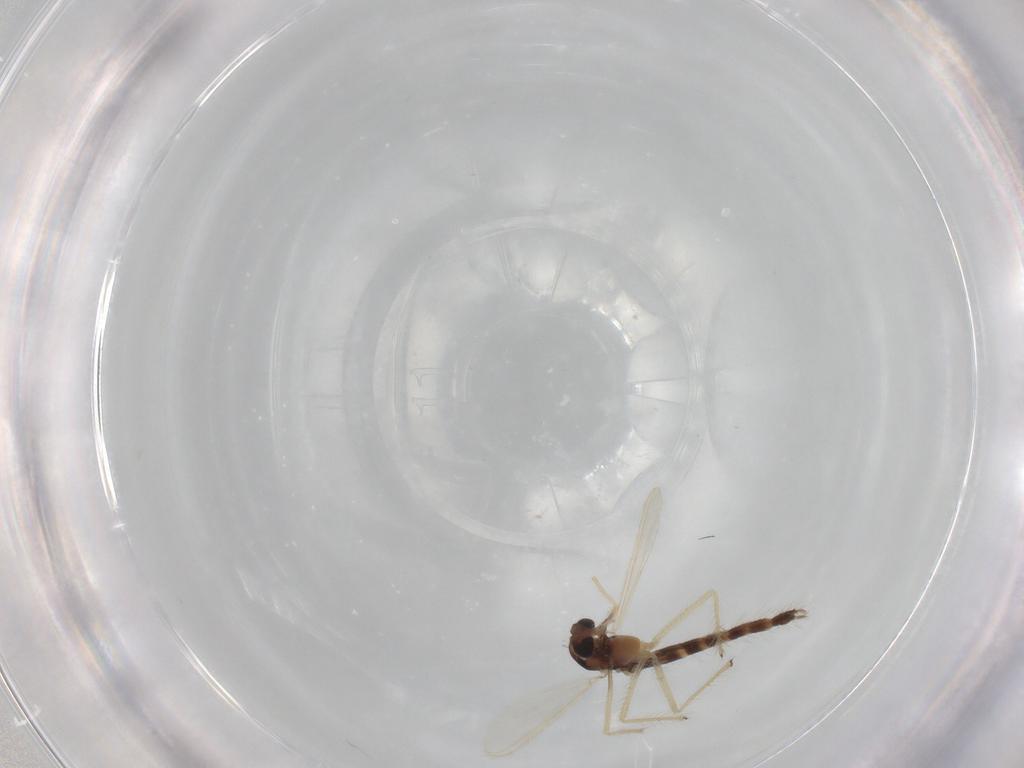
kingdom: Animalia
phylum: Arthropoda
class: Insecta
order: Diptera
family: Chironomidae
